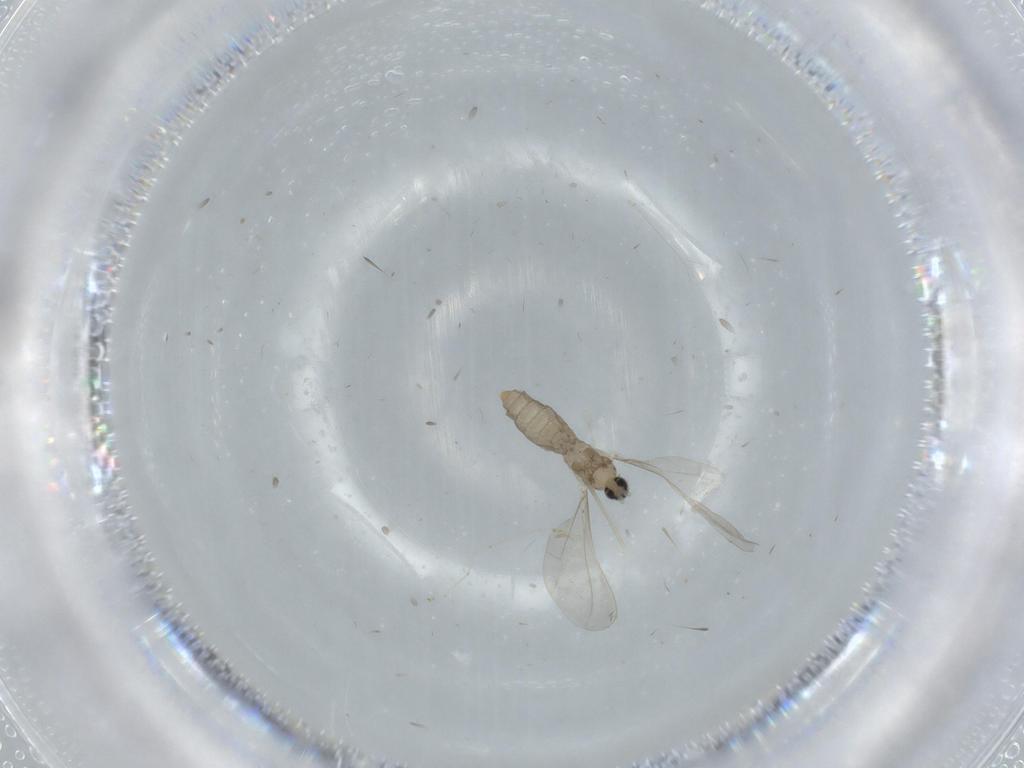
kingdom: Animalia
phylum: Arthropoda
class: Insecta
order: Diptera
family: Cecidomyiidae
